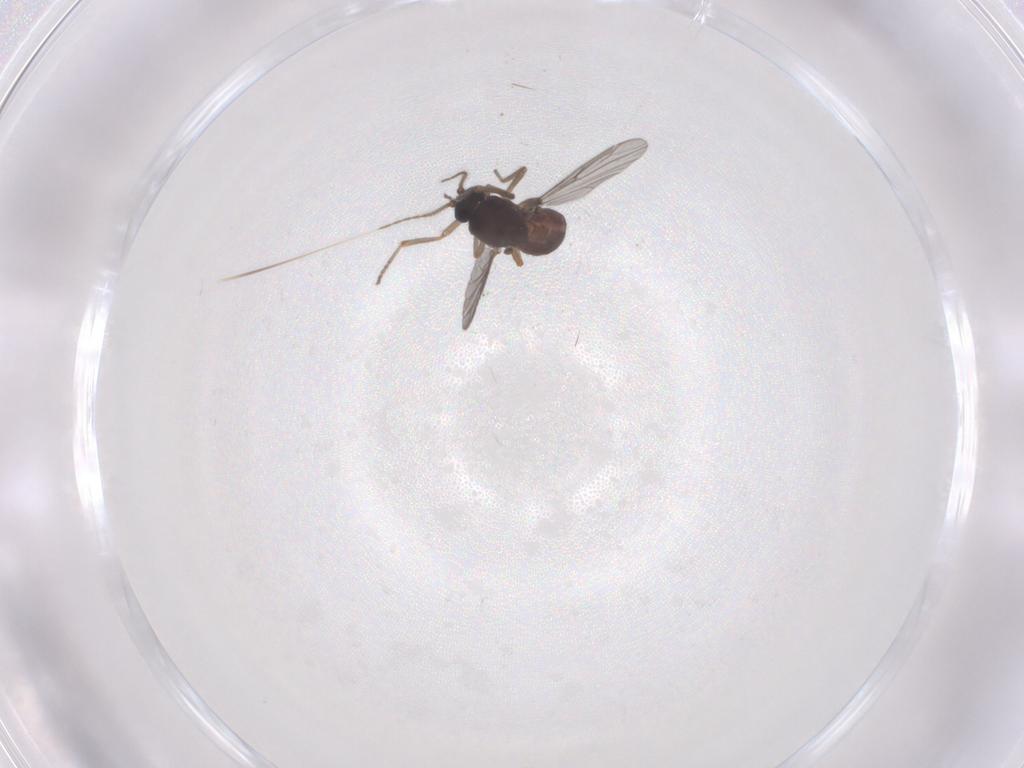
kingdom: Animalia
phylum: Arthropoda
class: Insecta
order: Diptera
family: Ceratopogonidae
